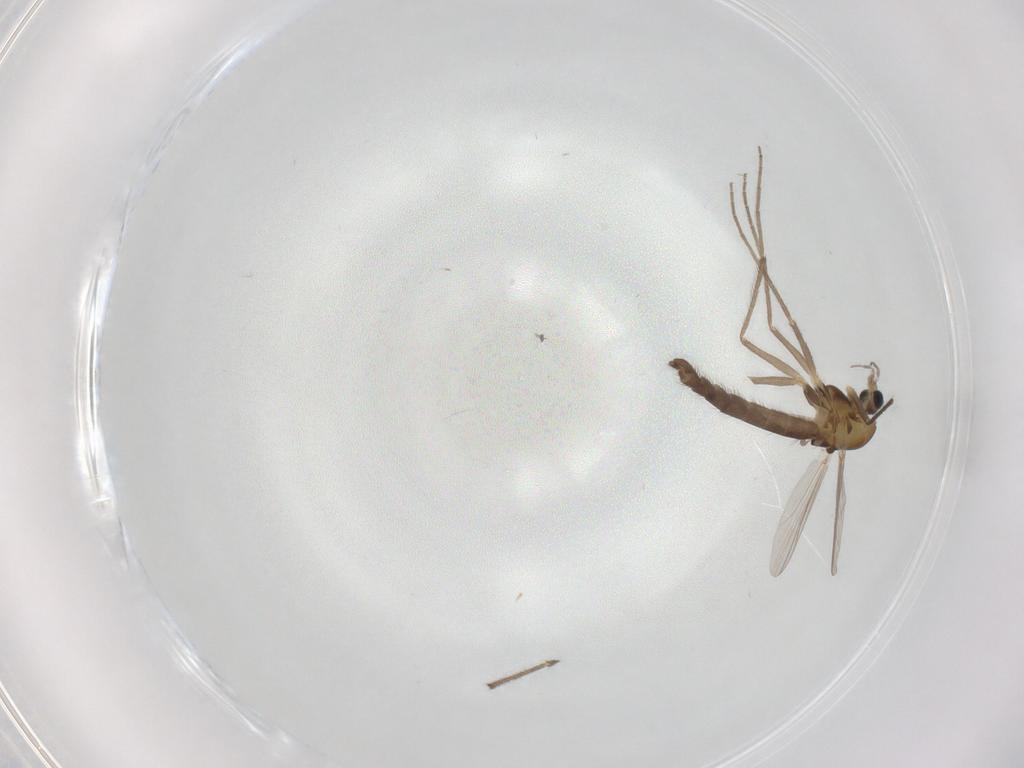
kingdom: Animalia
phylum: Arthropoda
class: Insecta
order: Diptera
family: Chironomidae
